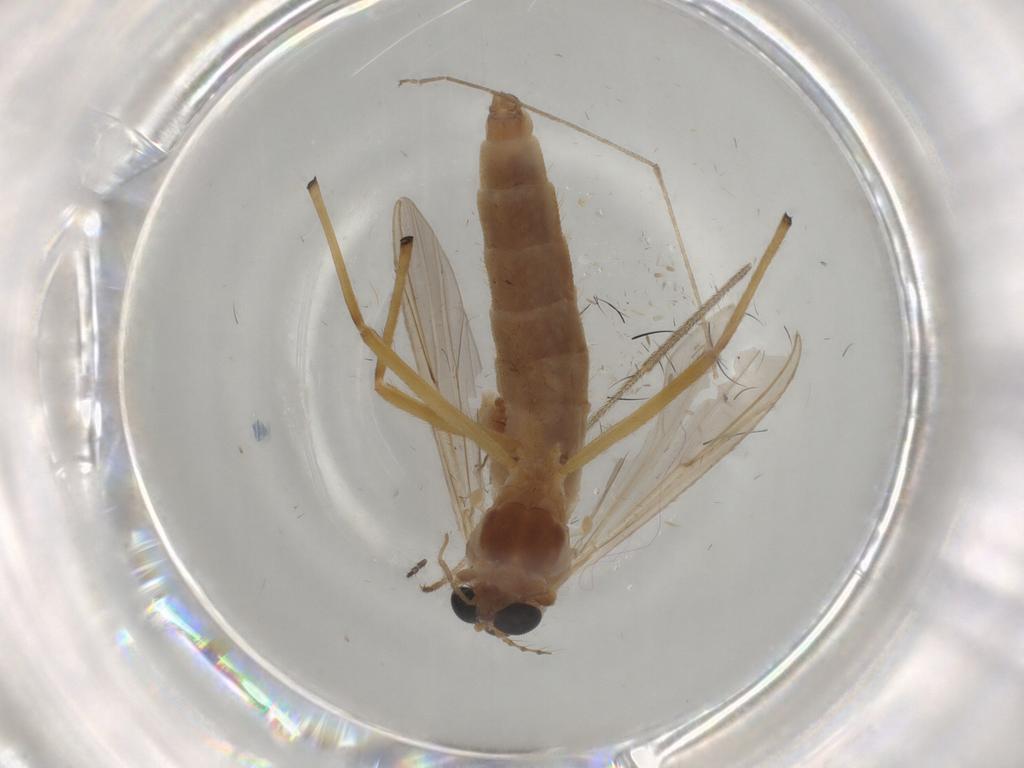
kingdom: Animalia
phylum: Arthropoda
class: Insecta
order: Diptera
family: Limoniidae
